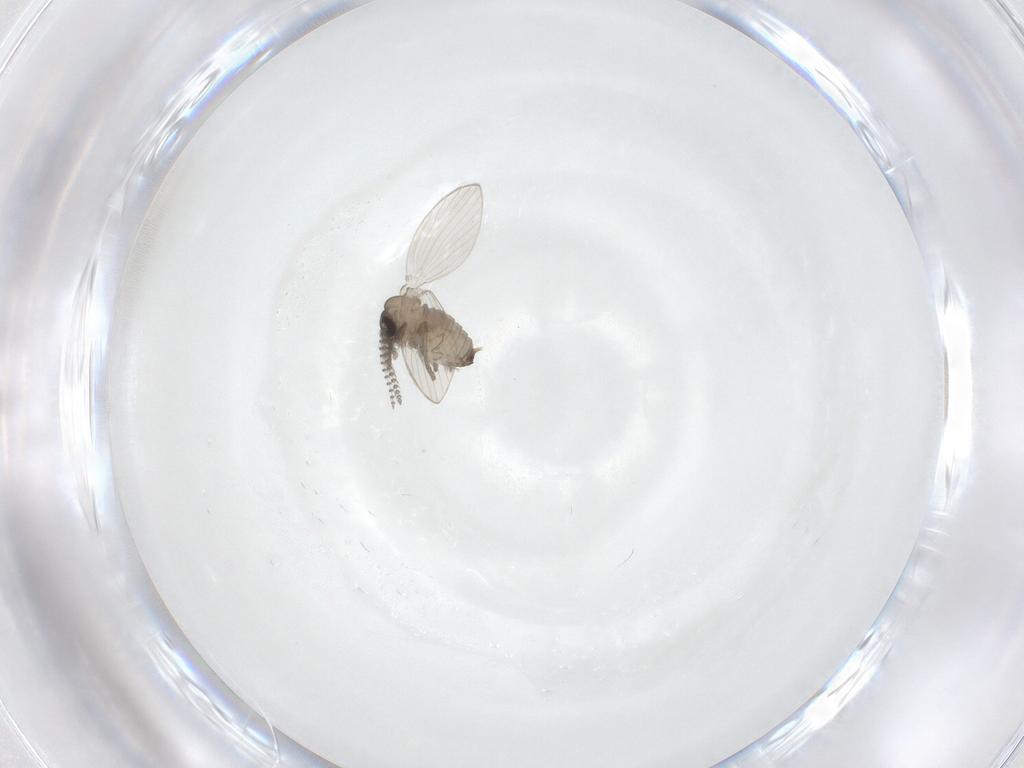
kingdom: Animalia
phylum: Arthropoda
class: Insecta
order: Diptera
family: Psychodidae
